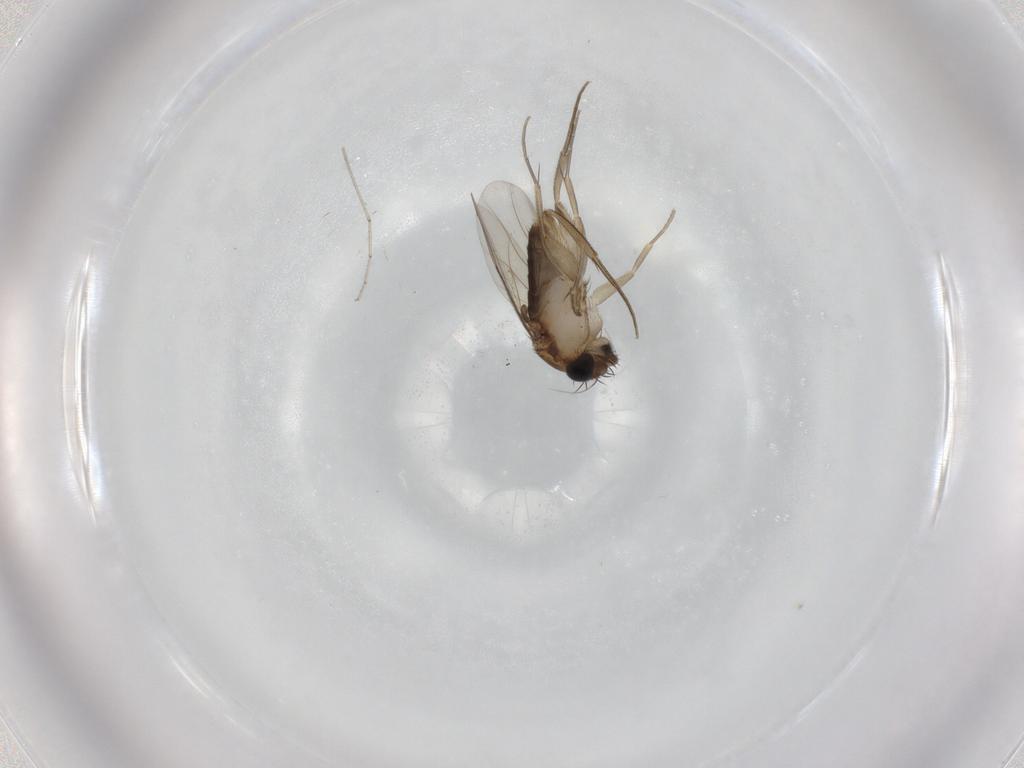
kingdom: Animalia
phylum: Arthropoda
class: Insecta
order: Diptera
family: Phoridae
